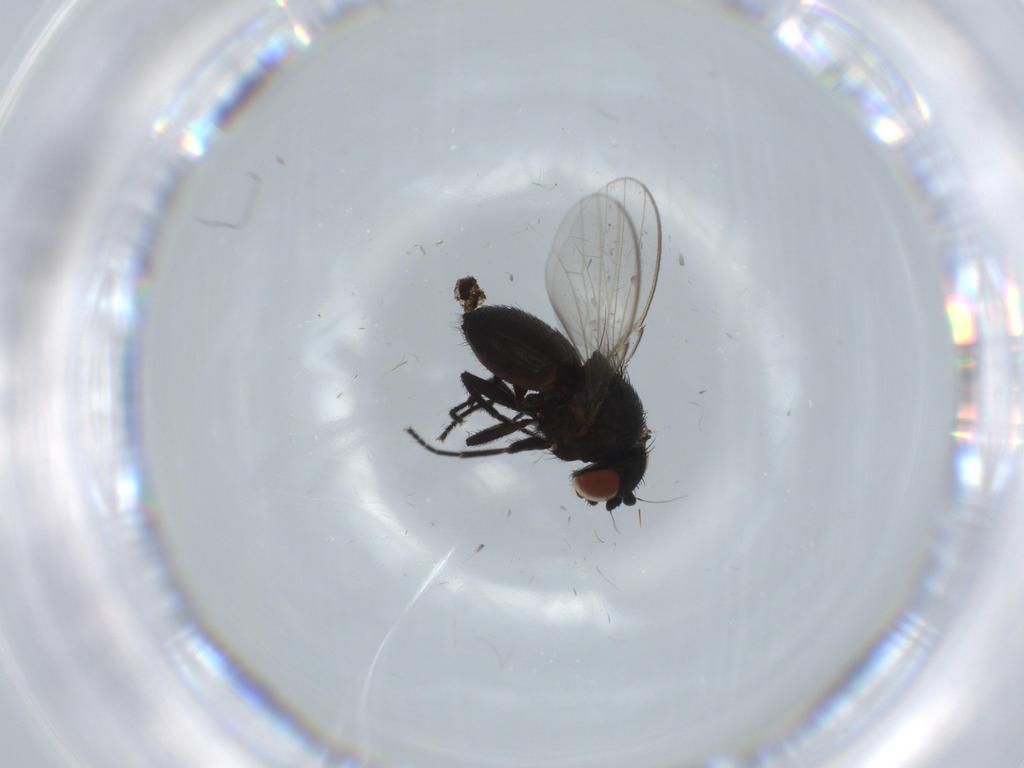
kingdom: Animalia
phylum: Arthropoda
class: Insecta
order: Diptera
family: Milichiidae
